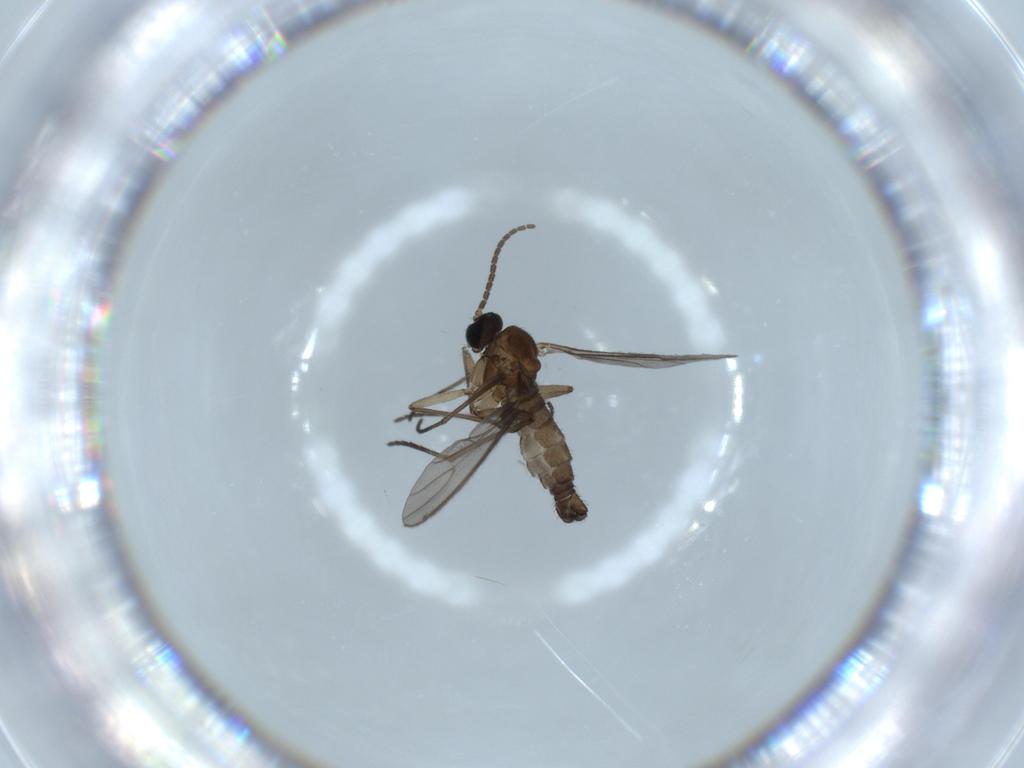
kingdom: Animalia
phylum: Arthropoda
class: Insecta
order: Diptera
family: Sciaridae
